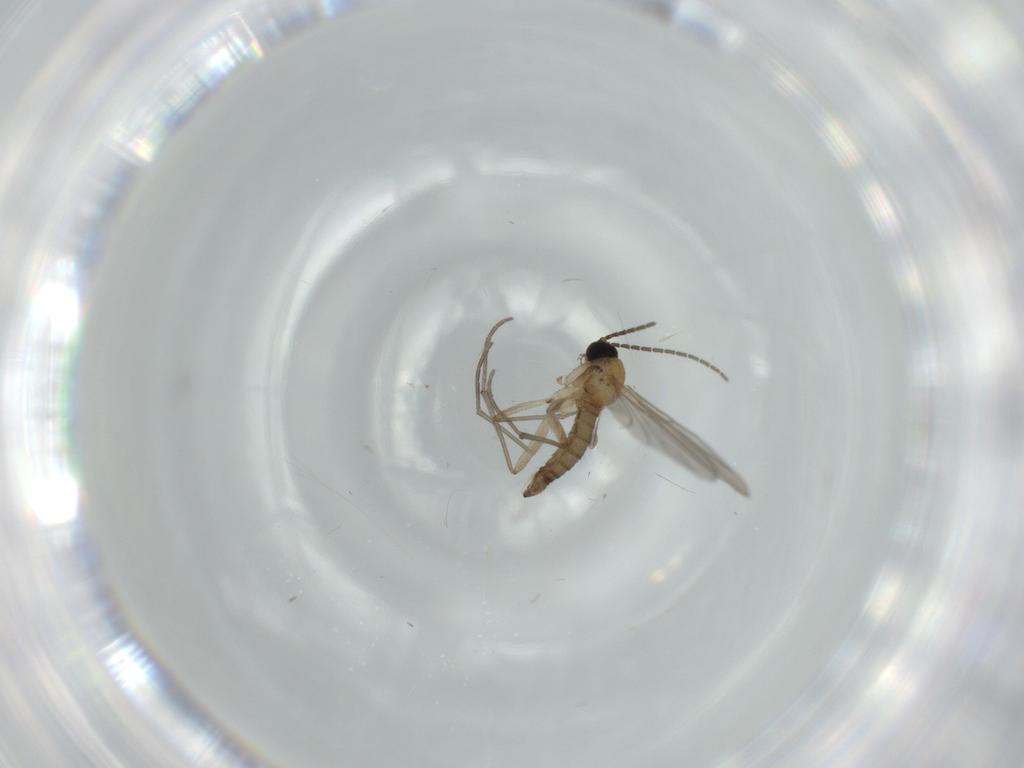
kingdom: Animalia
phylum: Arthropoda
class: Insecta
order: Diptera
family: Sciaridae
